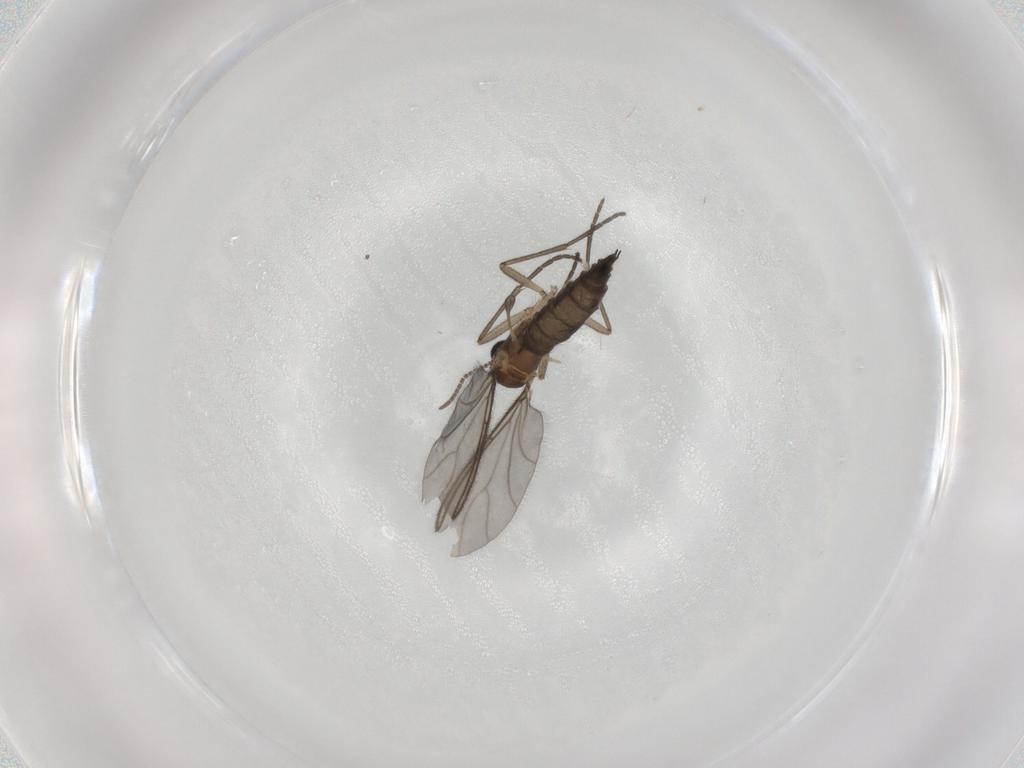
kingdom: Animalia
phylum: Arthropoda
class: Insecta
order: Diptera
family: Sciaridae
